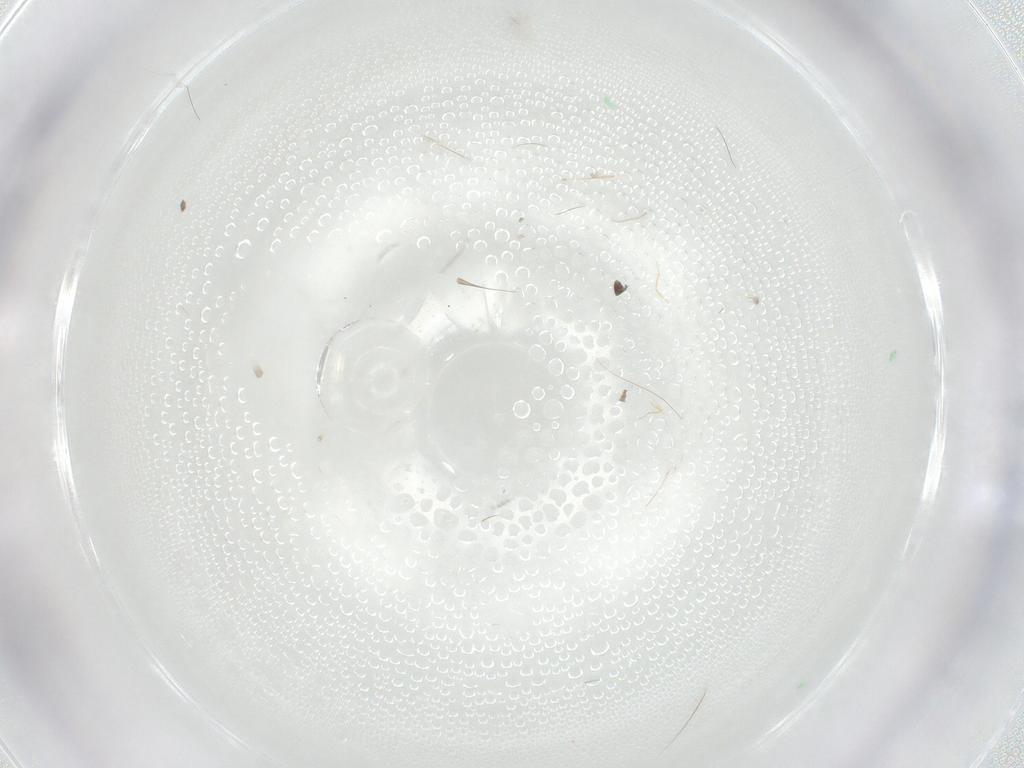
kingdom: Animalia
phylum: Arthropoda
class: Arachnida
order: Trombidiformes
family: Eupodidae
